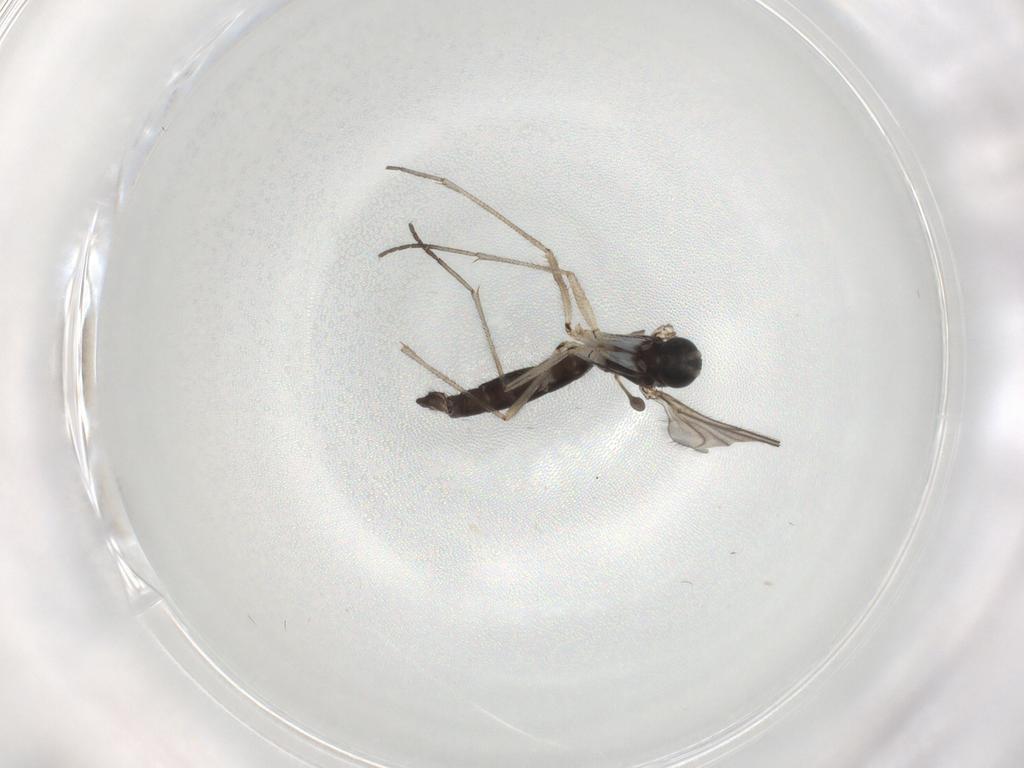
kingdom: Animalia
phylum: Arthropoda
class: Insecta
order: Diptera
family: Sciaridae
